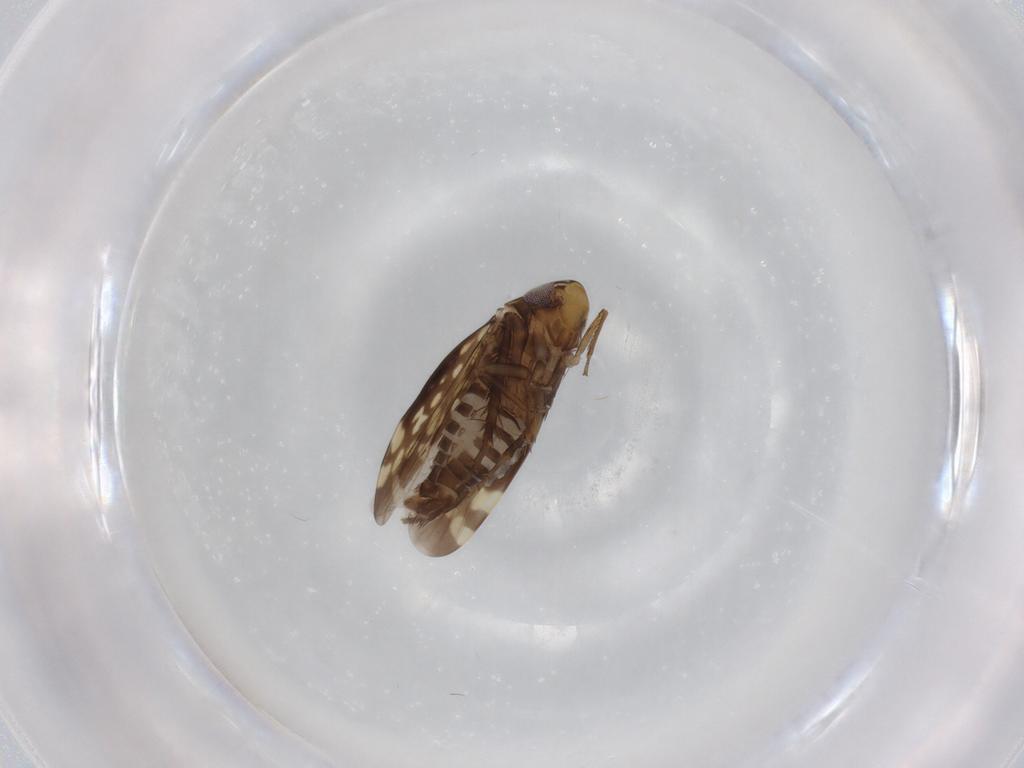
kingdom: Animalia
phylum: Arthropoda
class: Insecta
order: Hemiptera
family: Cicadellidae
